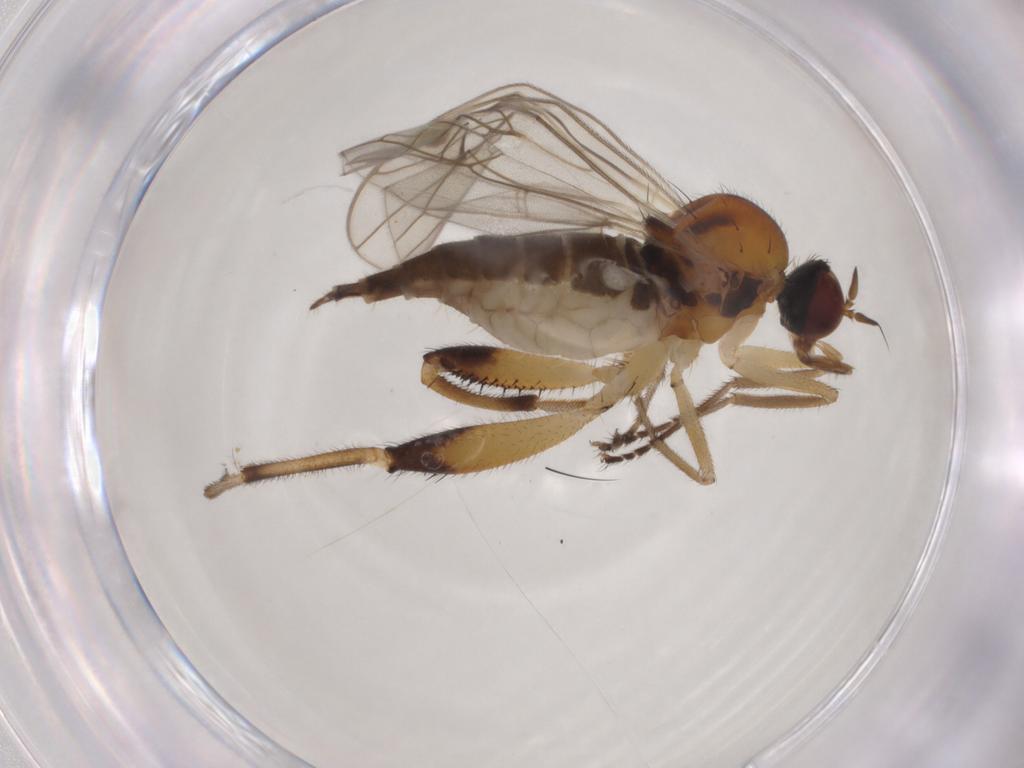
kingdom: Animalia
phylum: Arthropoda
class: Insecta
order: Diptera
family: Hybotidae
